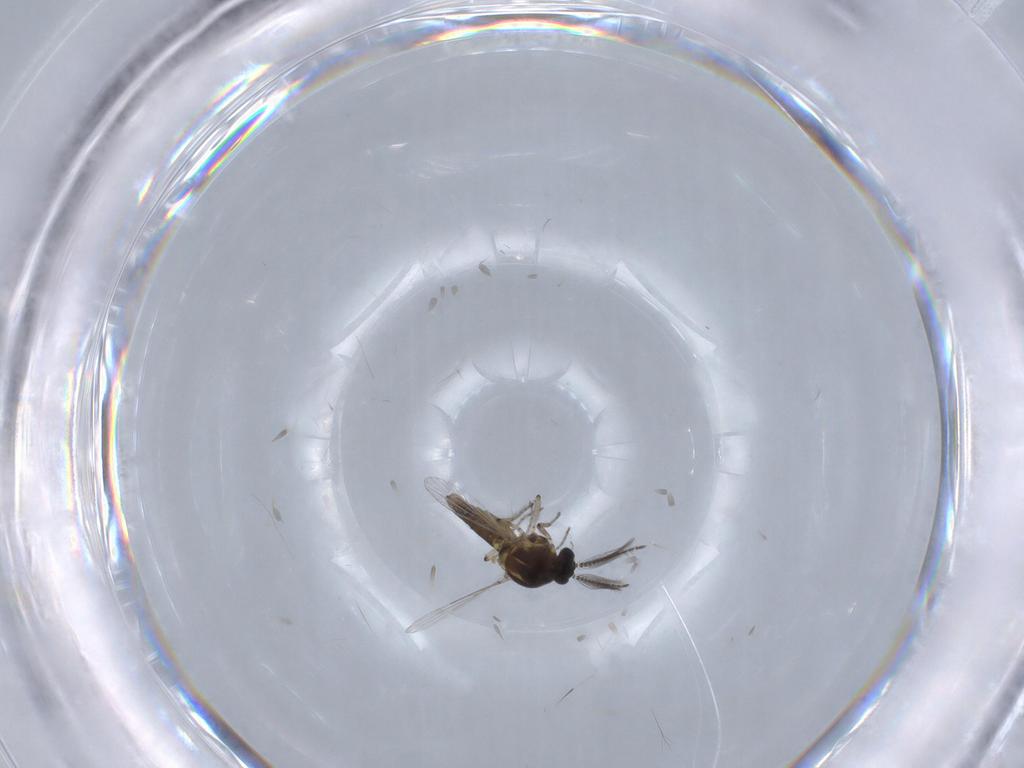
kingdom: Animalia
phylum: Arthropoda
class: Insecta
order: Diptera
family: Ceratopogonidae
